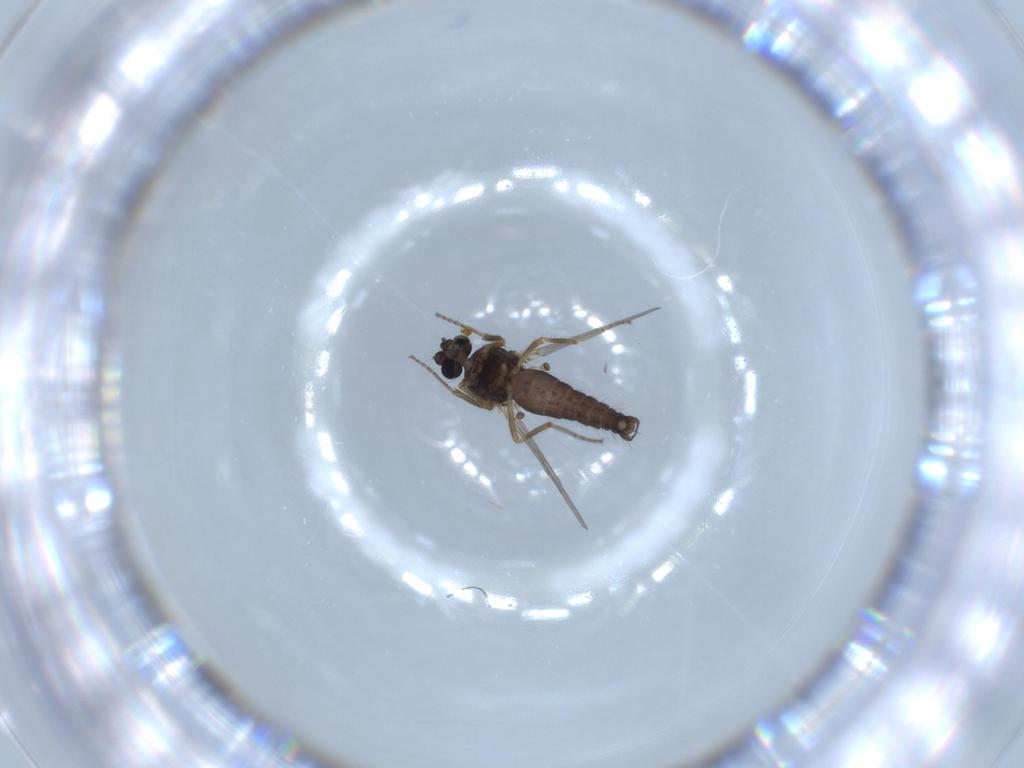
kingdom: Animalia
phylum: Arthropoda
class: Insecta
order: Diptera
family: Ceratopogonidae
